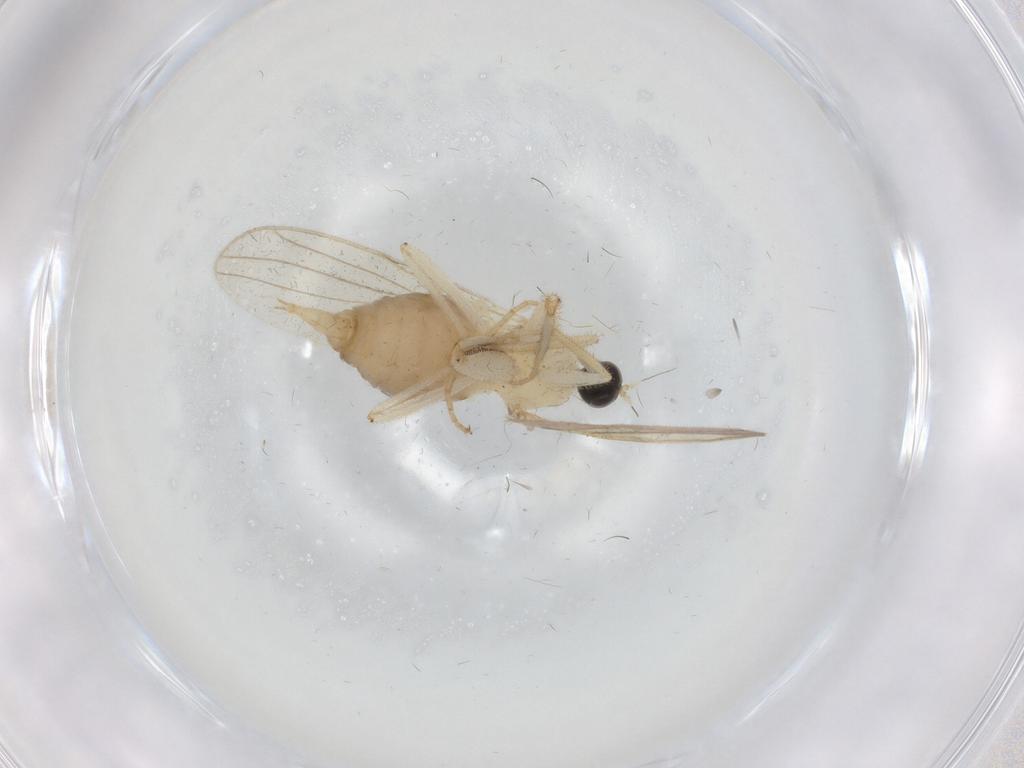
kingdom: Animalia
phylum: Arthropoda
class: Insecta
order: Diptera
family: Hybotidae
